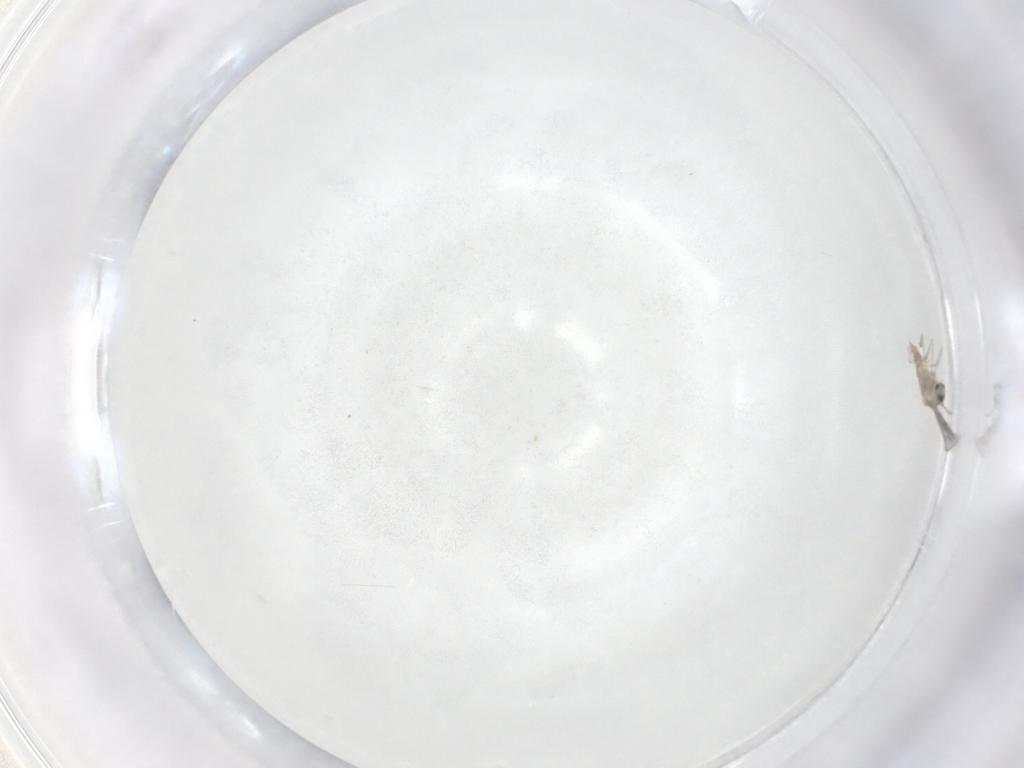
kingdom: Animalia
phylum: Arthropoda
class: Insecta
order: Diptera
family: Cecidomyiidae
